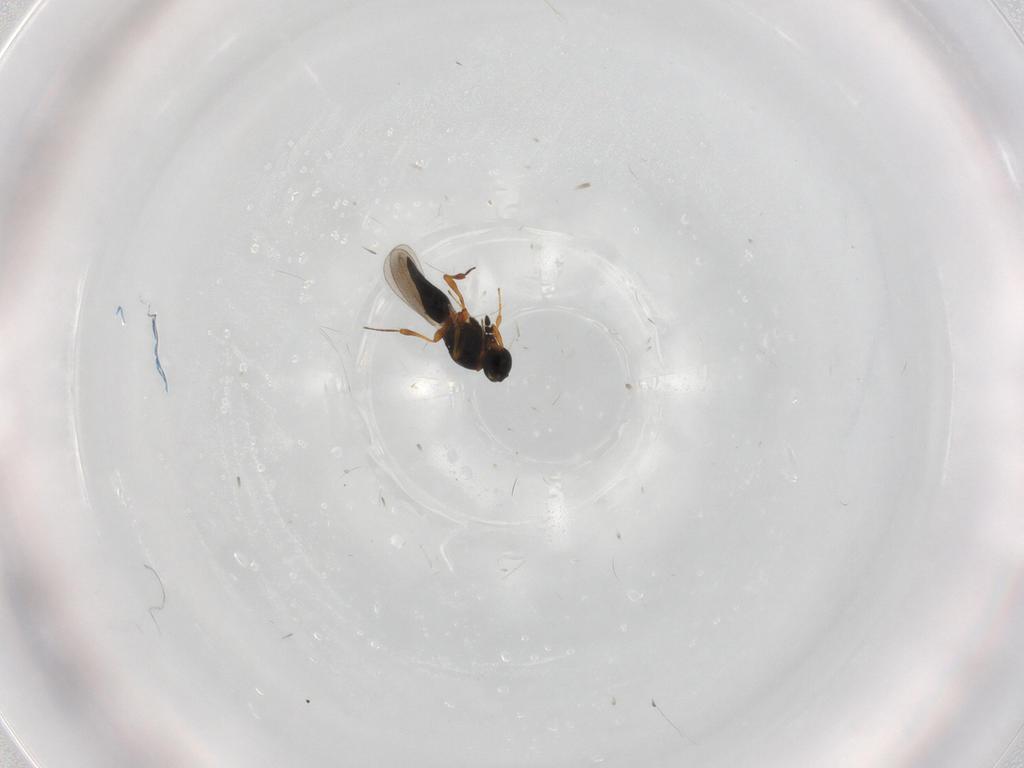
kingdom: Animalia
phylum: Arthropoda
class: Insecta
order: Hymenoptera
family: Platygastridae
